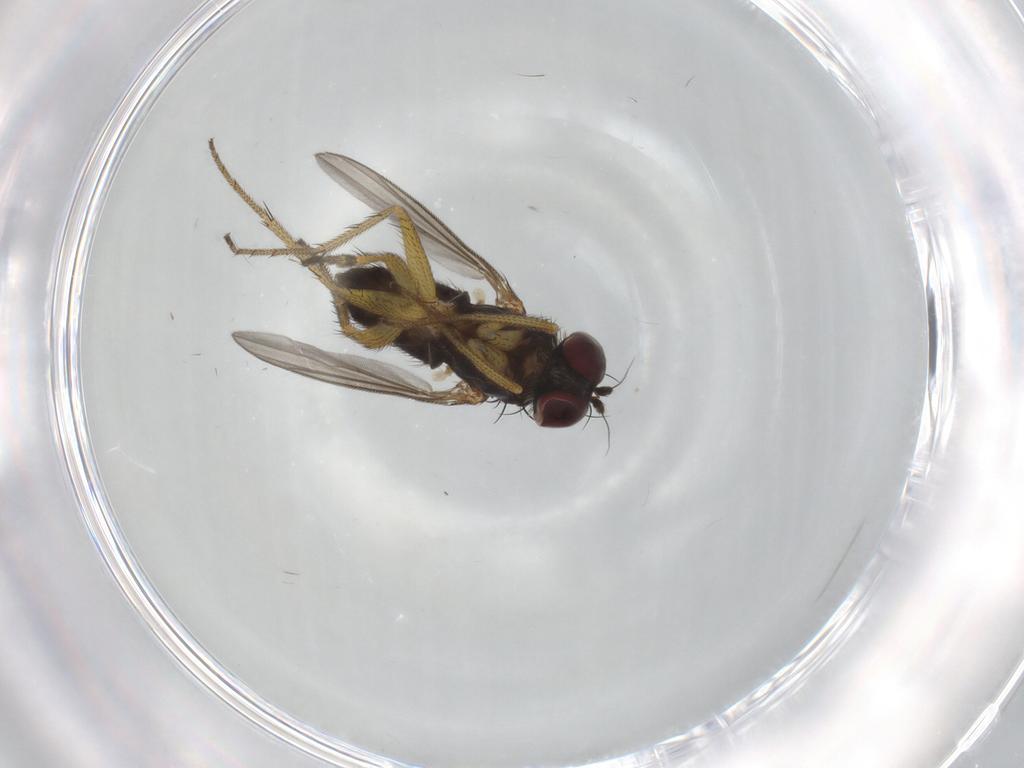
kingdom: Animalia
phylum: Arthropoda
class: Insecta
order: Diptera
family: Dolichopodidae
